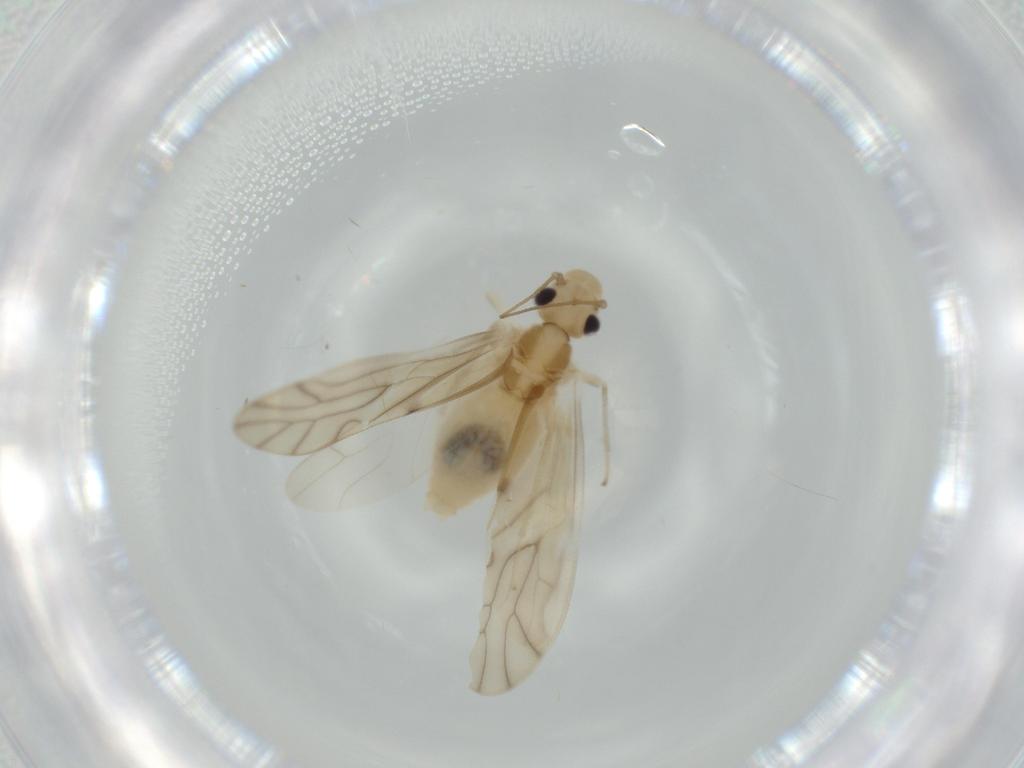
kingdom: Animalia
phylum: Arthropoda
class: Insecta
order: Psocodea
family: Caeciliusidae
